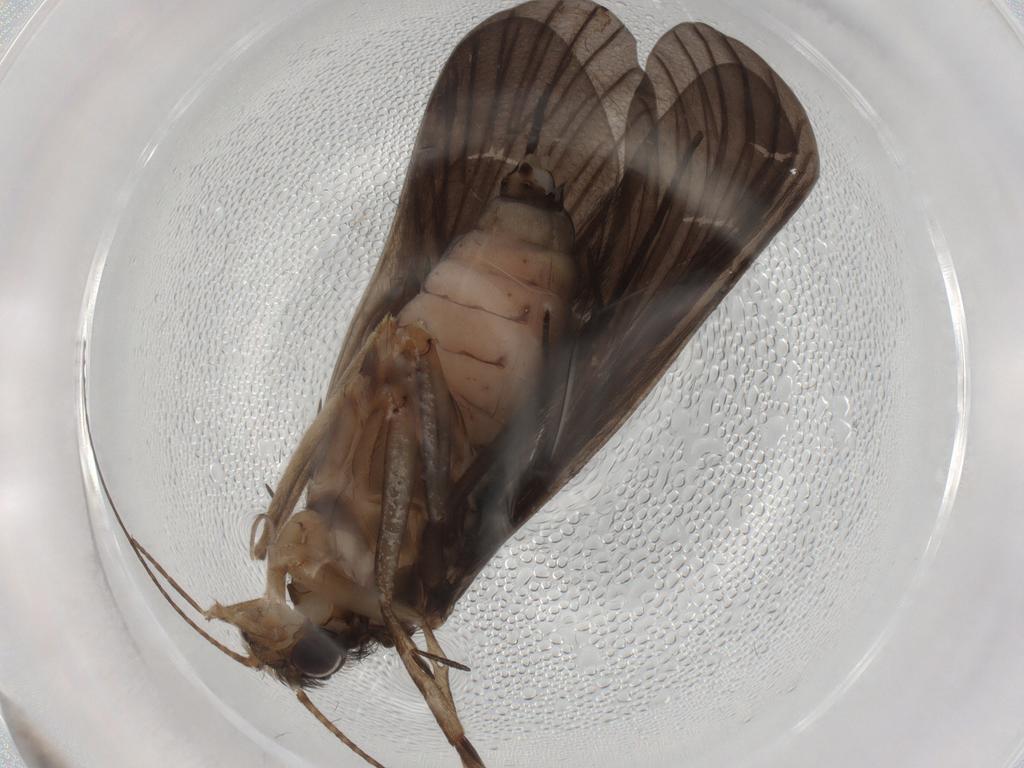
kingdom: Animalia
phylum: Arthropoda
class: Insecta
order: Trichoptera
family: Philopotamidae
